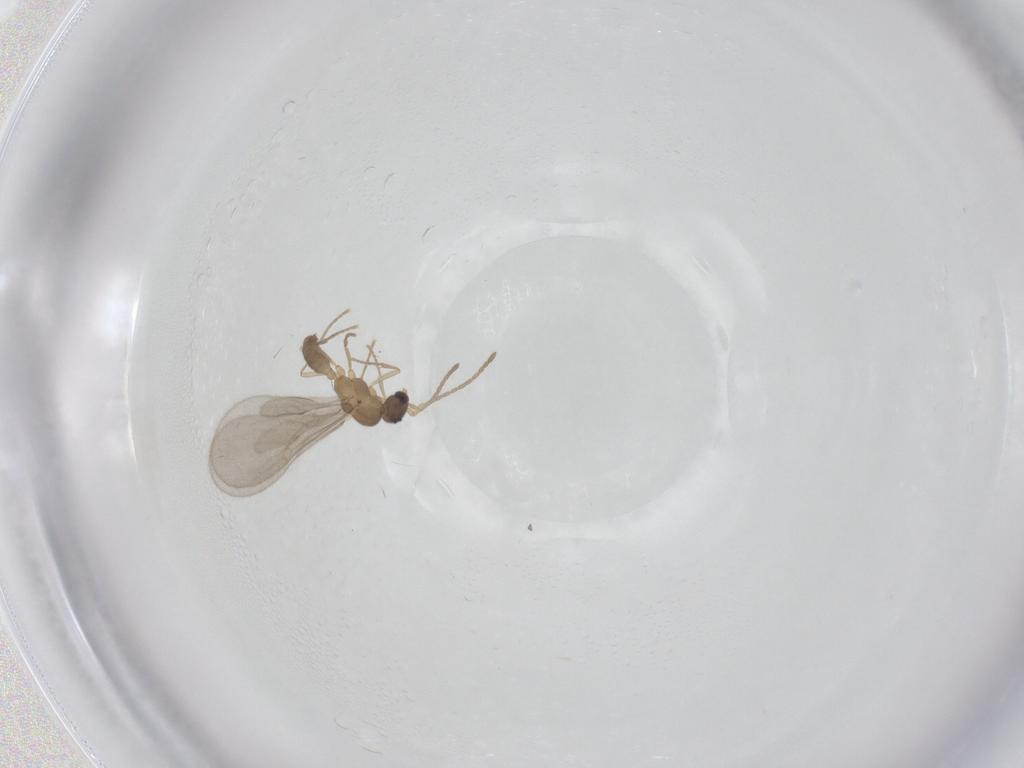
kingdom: Animalia
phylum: Arthropoda
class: Insecta
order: Hymenoptera
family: Formicidae
